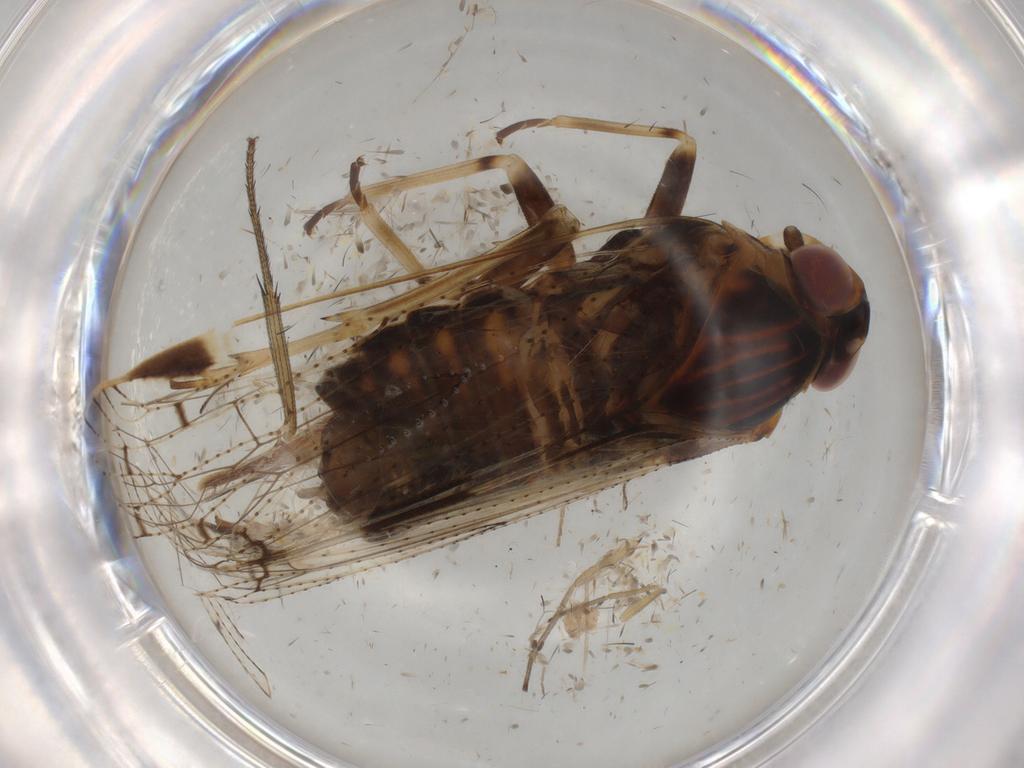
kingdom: Animalia
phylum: Arthropoda
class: Insecta
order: Hemiptera
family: Cixiidae
